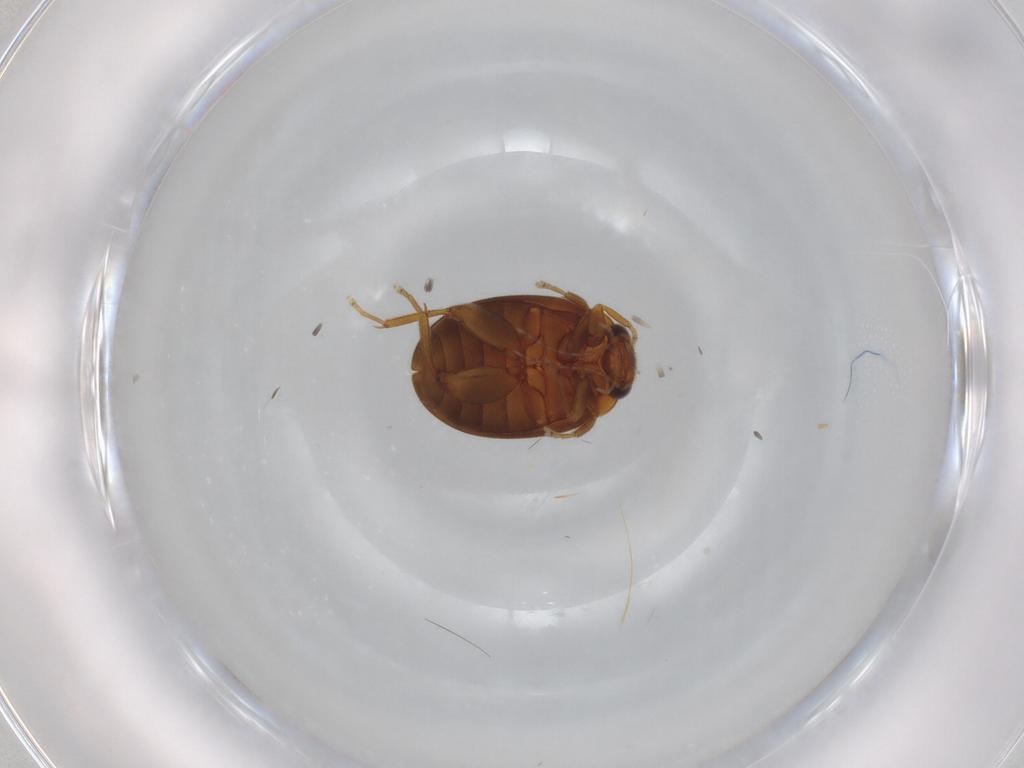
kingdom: Animalia
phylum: Arthropoda
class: Insecta
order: Coleoptera
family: Scirtidae
